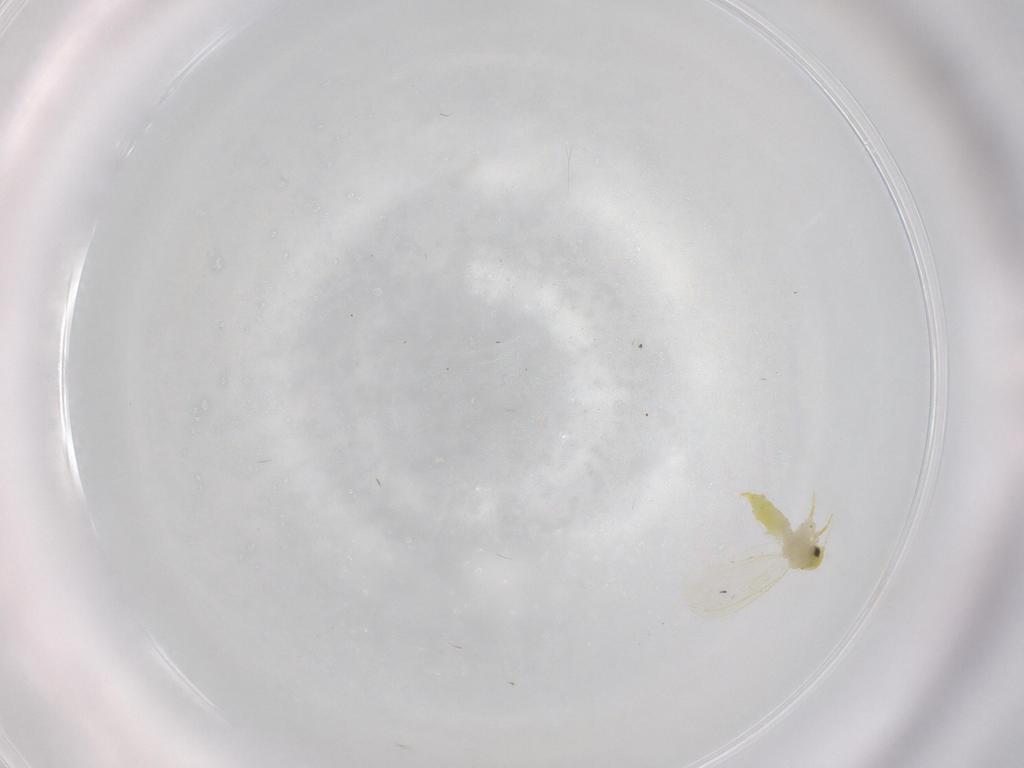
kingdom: Animalia
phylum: Arthropoda
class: Insecta
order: Hemiptera
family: Aleyrodidae
